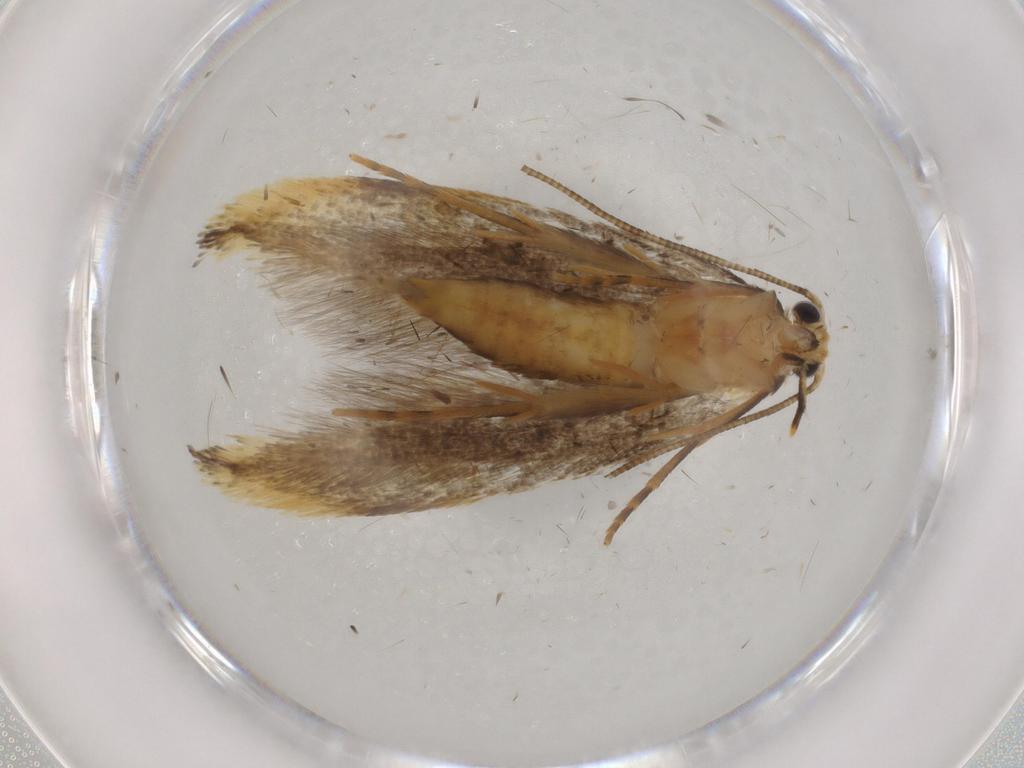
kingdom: Animalia
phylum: Arthropoda
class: Insecta
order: Lepidoptera
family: Tineidae
